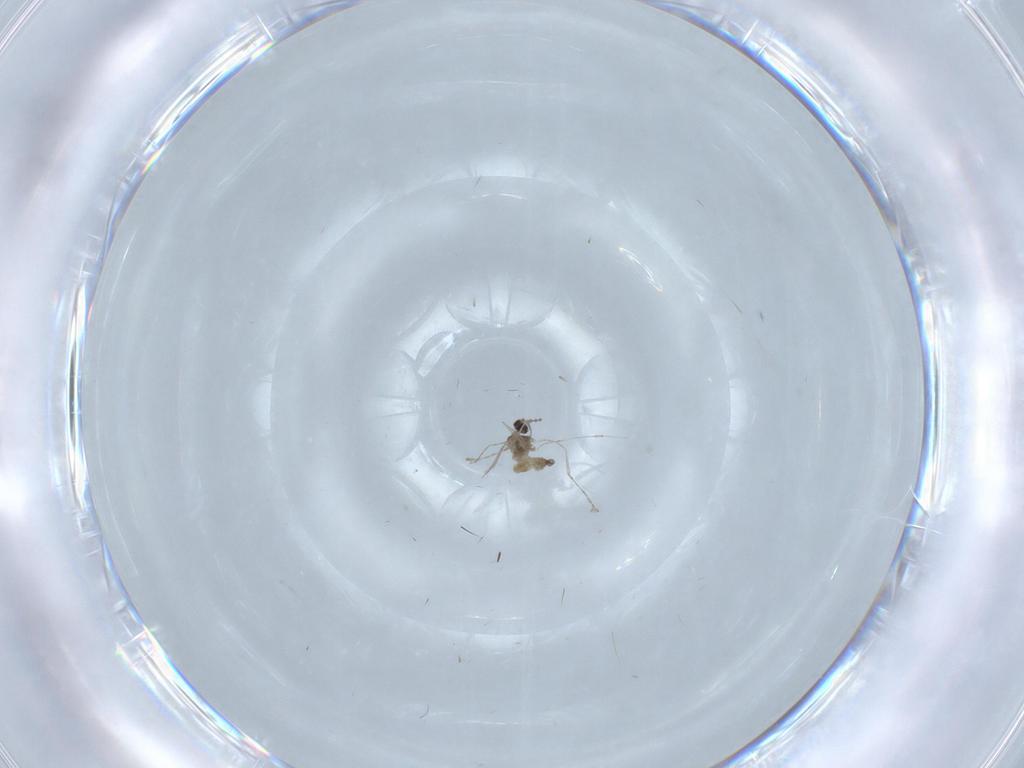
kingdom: Animalia
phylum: Arthropoda
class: Insecta
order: Diptera
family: Cecidomyiidae
